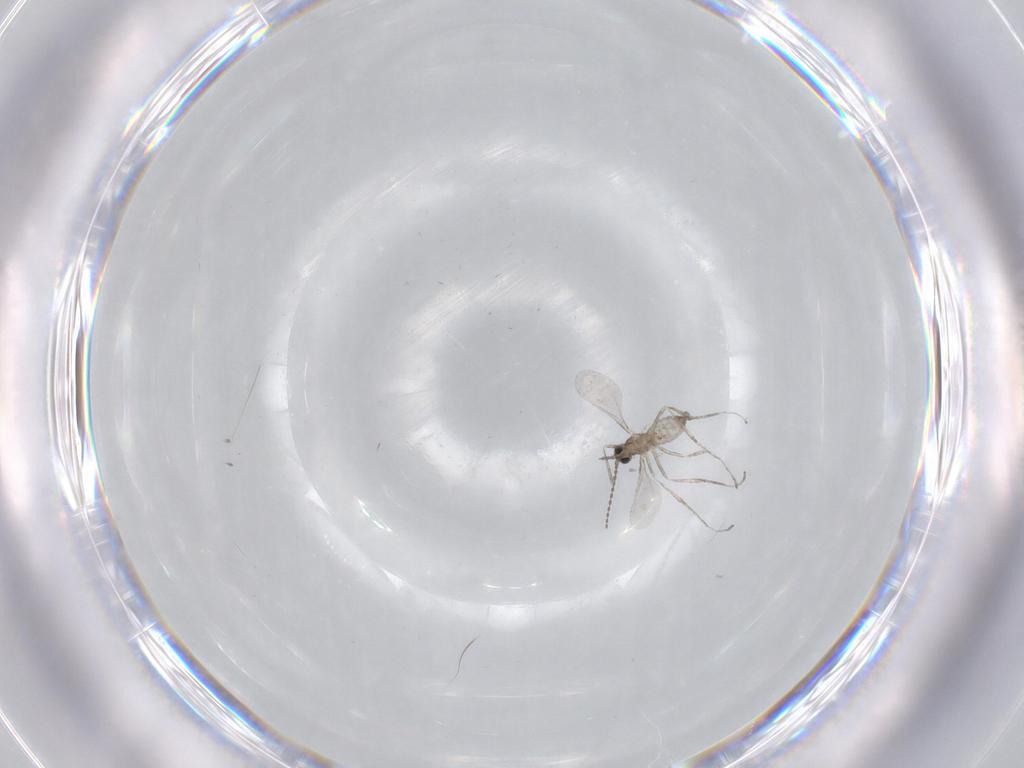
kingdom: Animalia
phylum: Arthropoda
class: Insecta
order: Diptera
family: Cecidomyiidae
